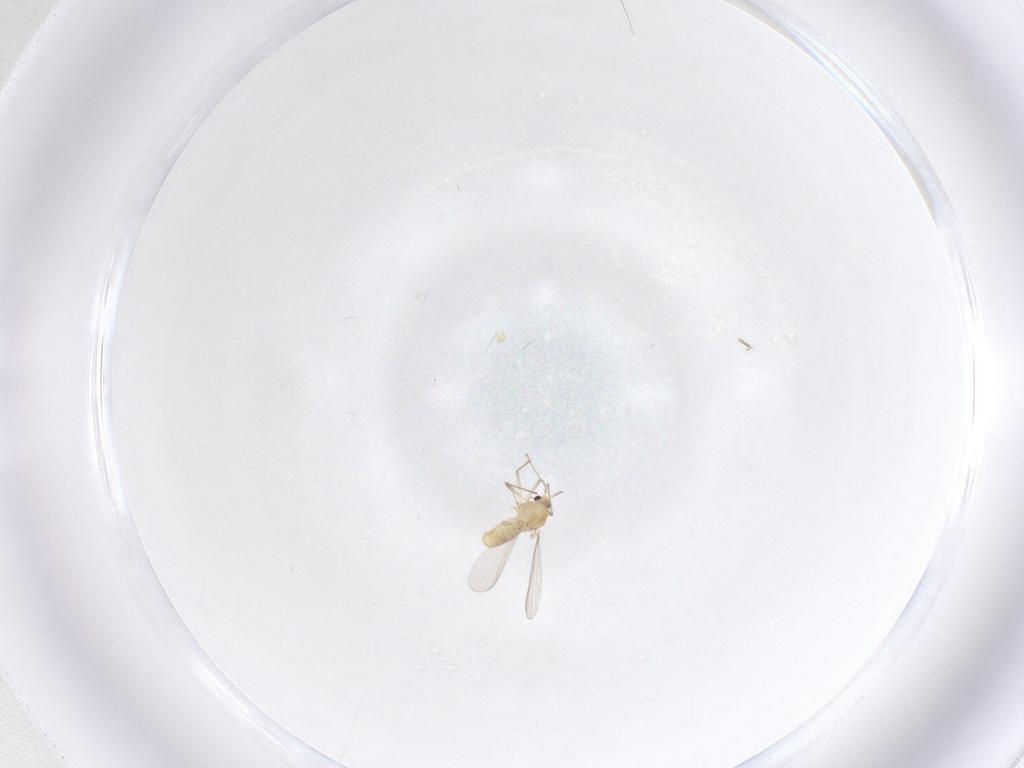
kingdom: Animalia
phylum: Arthropoda
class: Insecta
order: Diptera
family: Chironomidae
